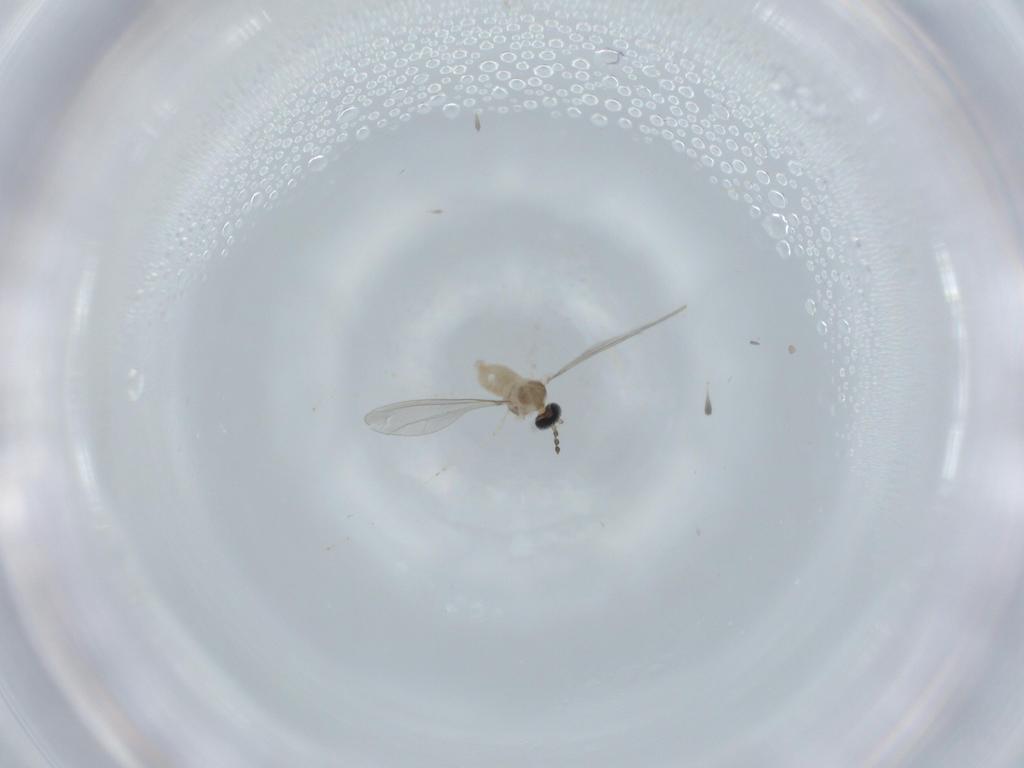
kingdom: Animalia
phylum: Arthropoda
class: Insecta
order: Diptera
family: Cecidomyiidae
